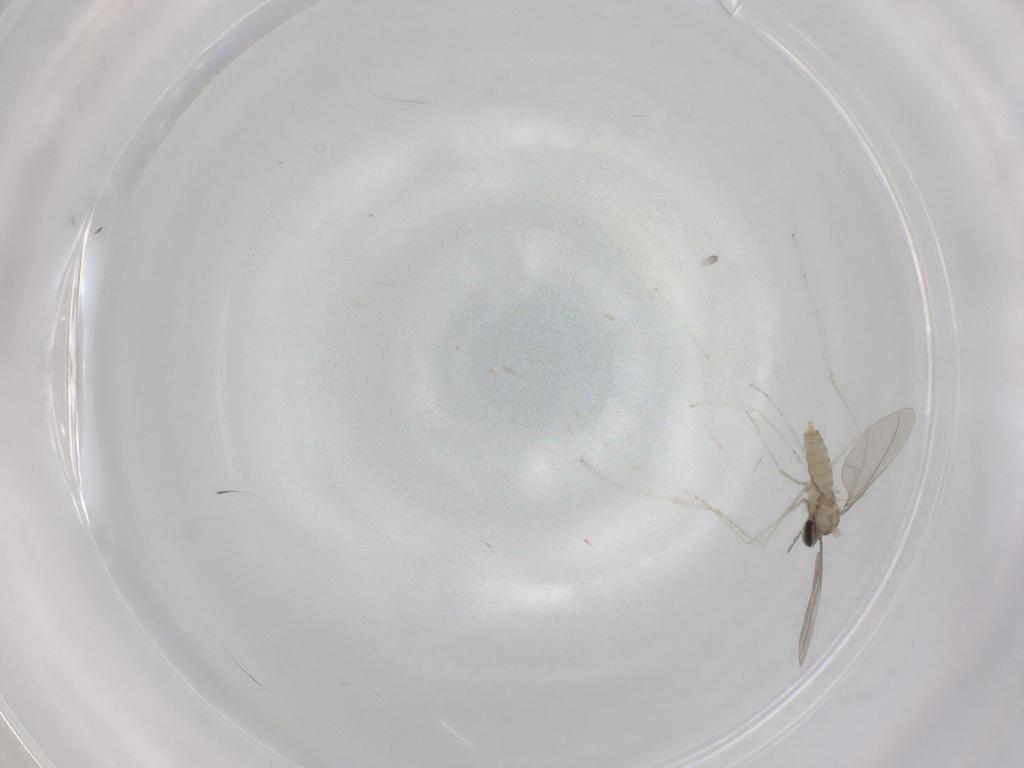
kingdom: Animalia
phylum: Arthropoda
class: Insecta
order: Diptera
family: Cecidomyiidae
